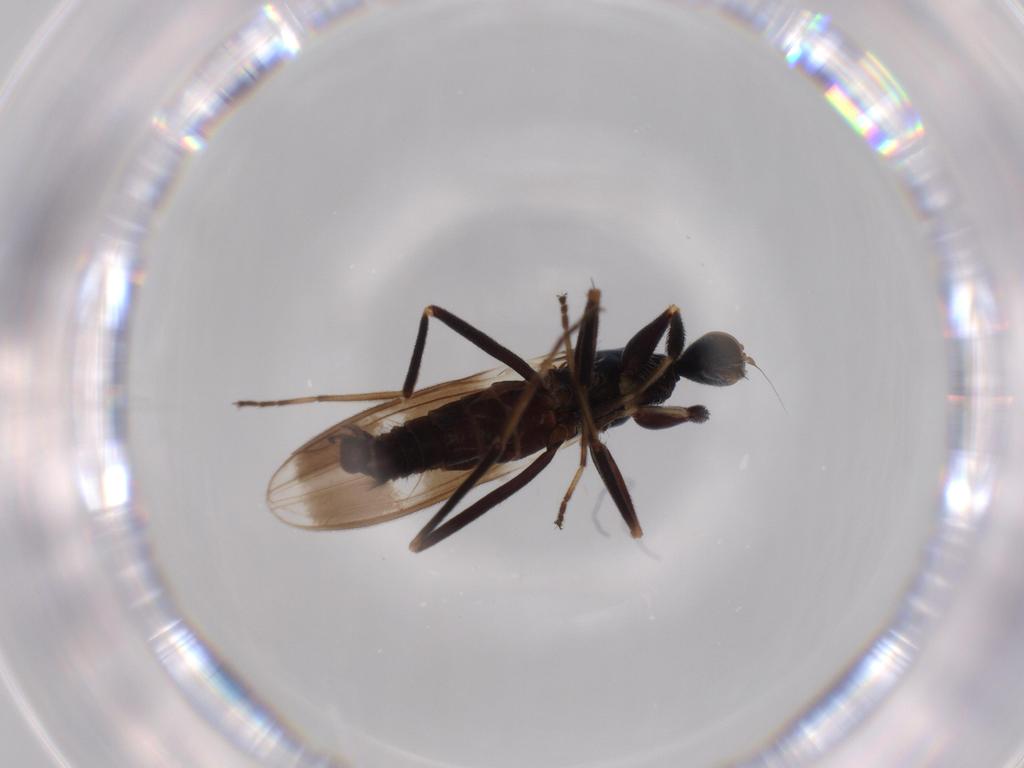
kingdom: Animalia
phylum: Arthropoda
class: Insecta
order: Diptera
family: Hybotidae
